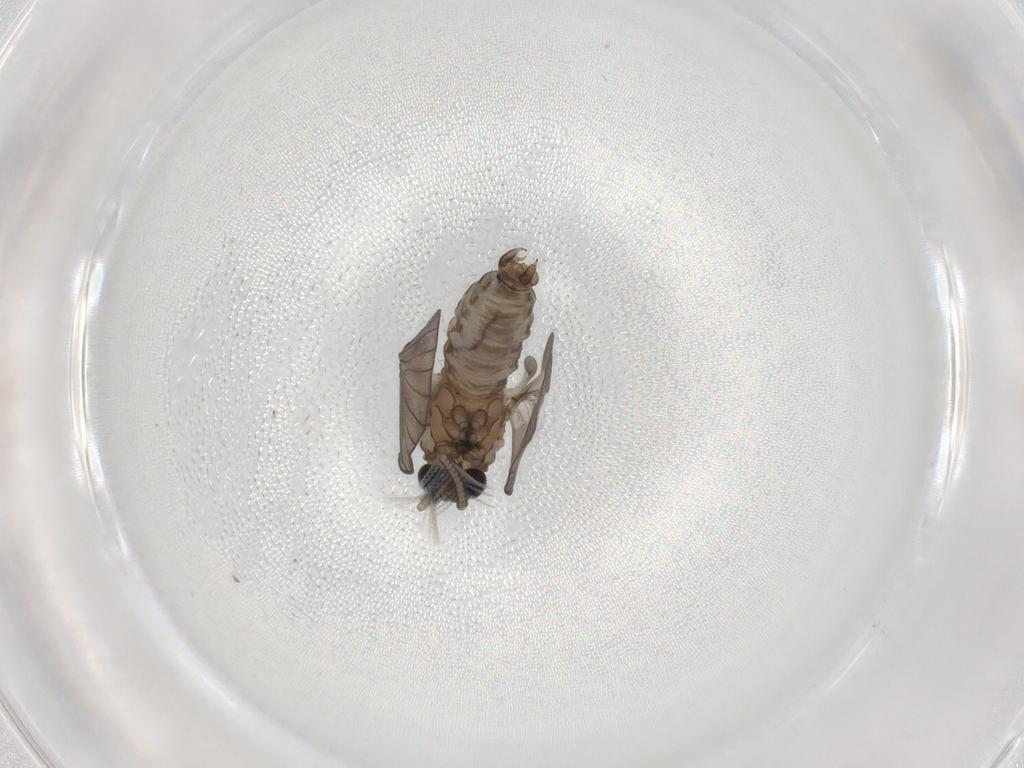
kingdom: Animalia
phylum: Arthropoda
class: Insecta
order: Diptera
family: Psychodidae
